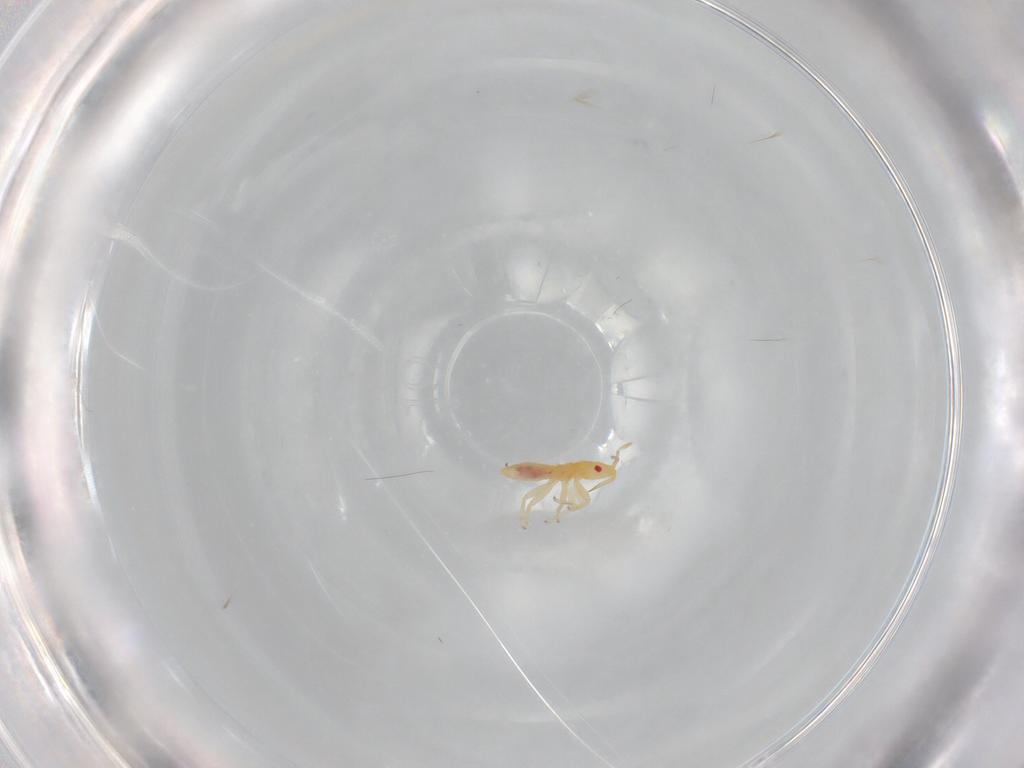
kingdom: Animalia
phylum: Arthropoda
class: Insecta
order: Hemiptera
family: Anthocoridae
